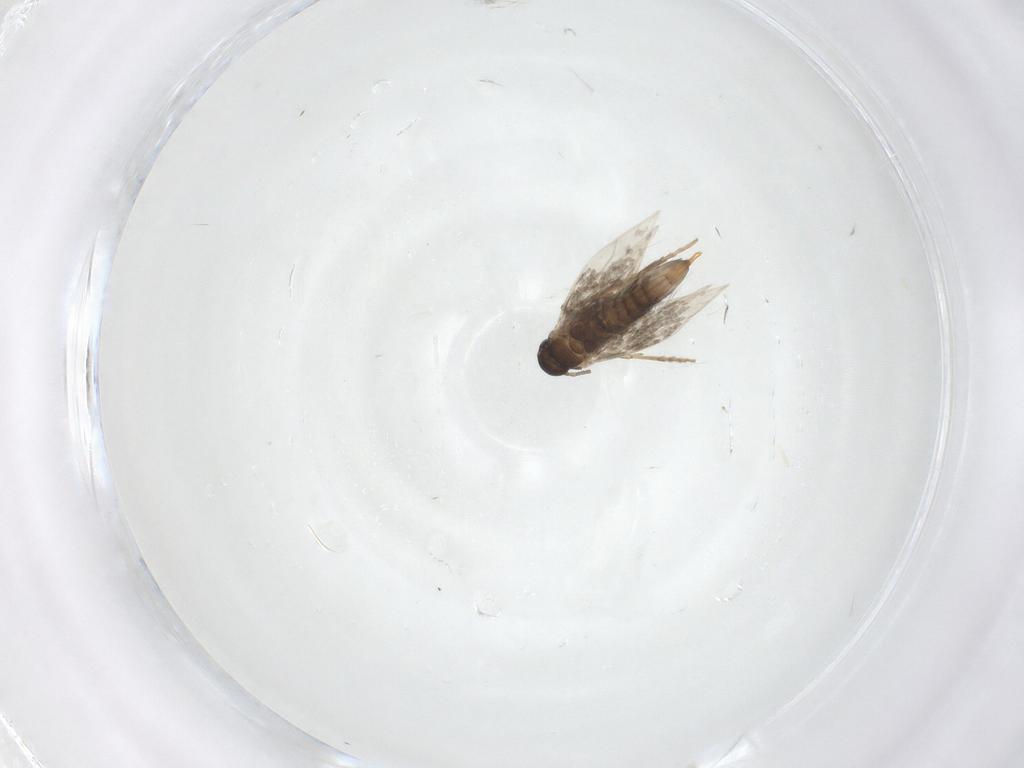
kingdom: Animalia
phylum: Arthropoda
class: Insecta
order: Lepidoptera
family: Heliozelidae
